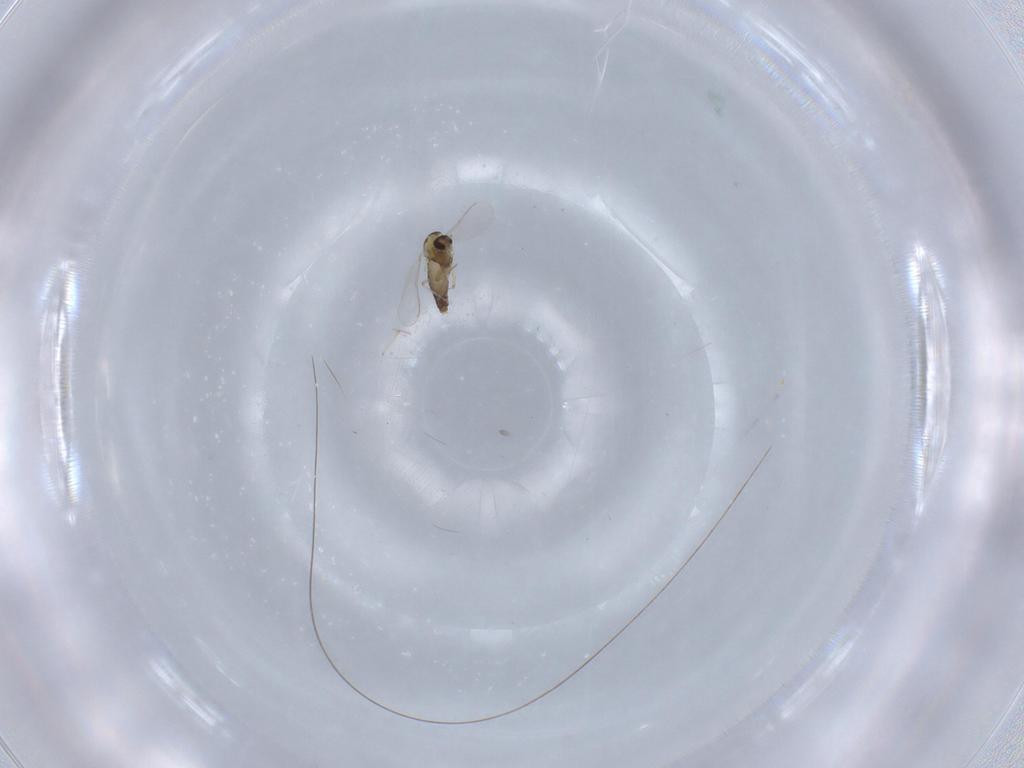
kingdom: Animalia
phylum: Arthropoda
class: Insecta
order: Diptera
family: Chironomidae
